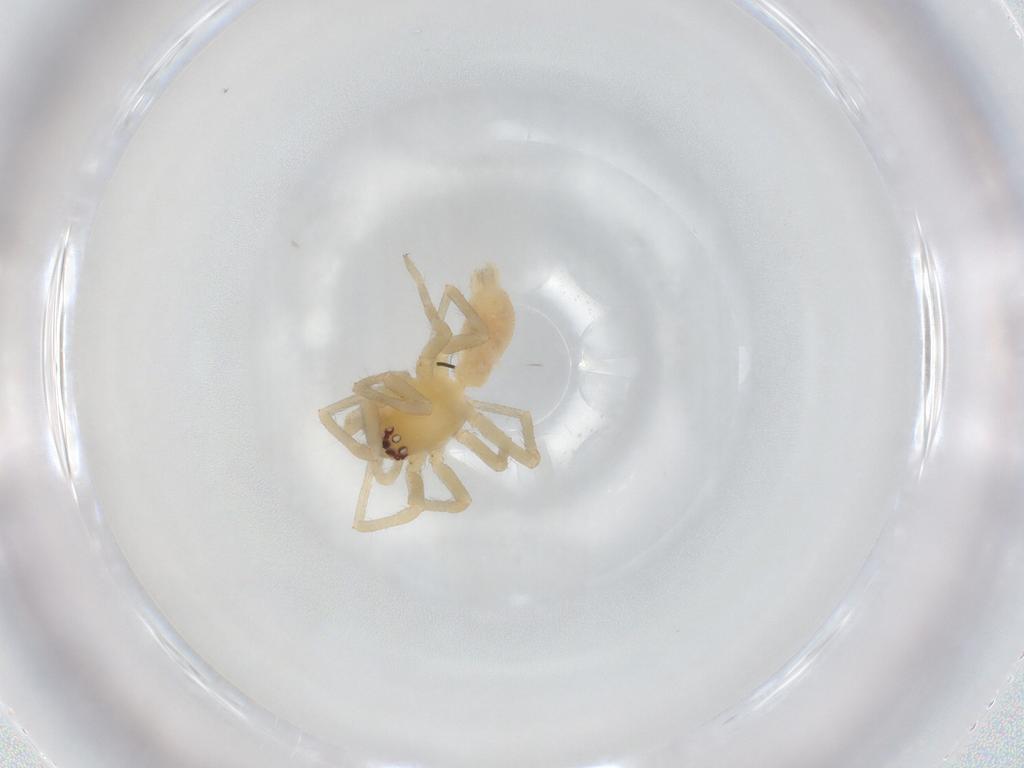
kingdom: Animalia
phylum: Arthropoda
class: Arachnida
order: Araneae
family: Cheiracanthiidae
